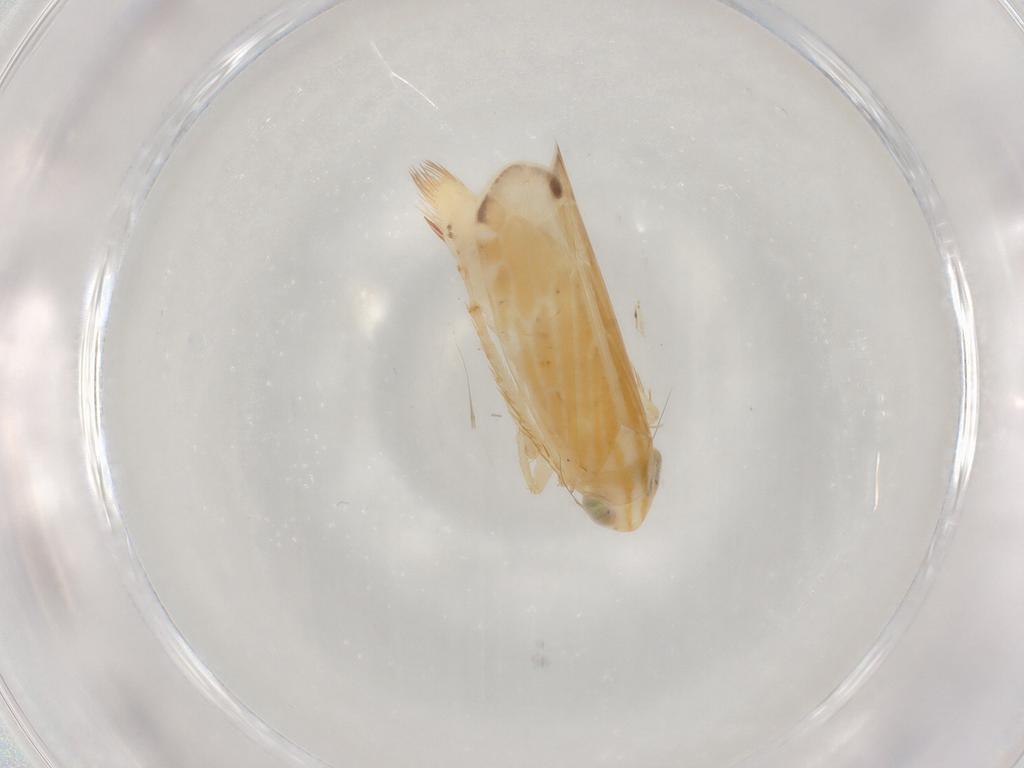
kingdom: Animalia
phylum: Arthropoda
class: Insecta
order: Hemiptera
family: Cicadellidae
